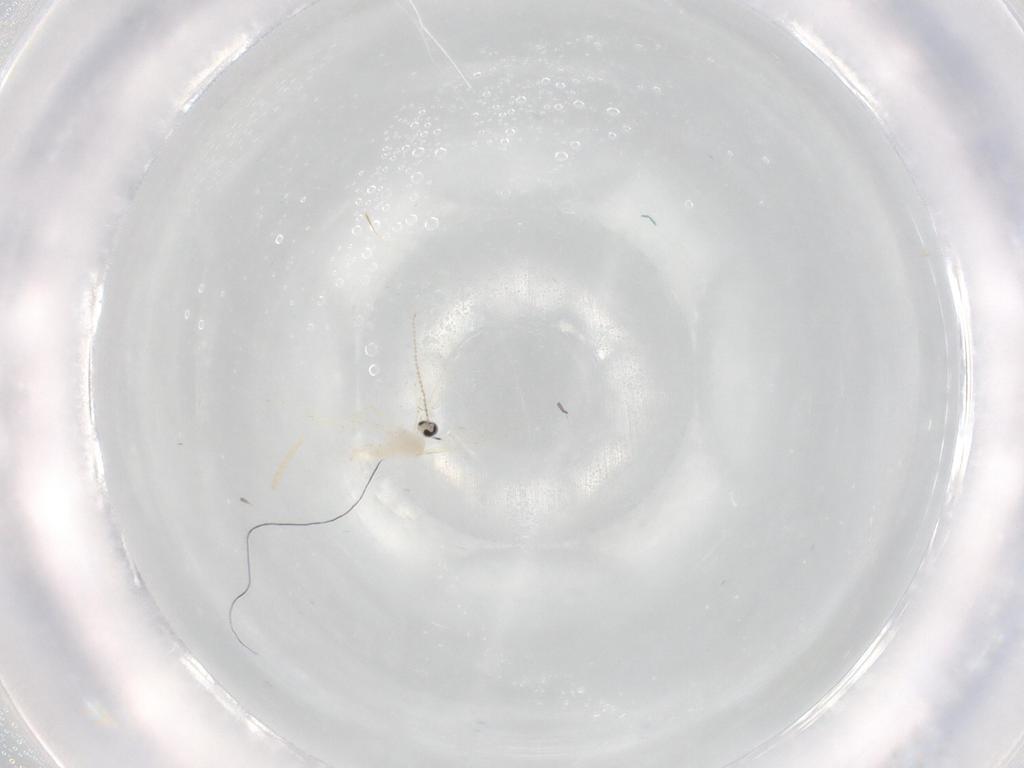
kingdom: Animalia
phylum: Arthropoda
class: Insecta
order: Diptera
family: Cecidomyiidae
